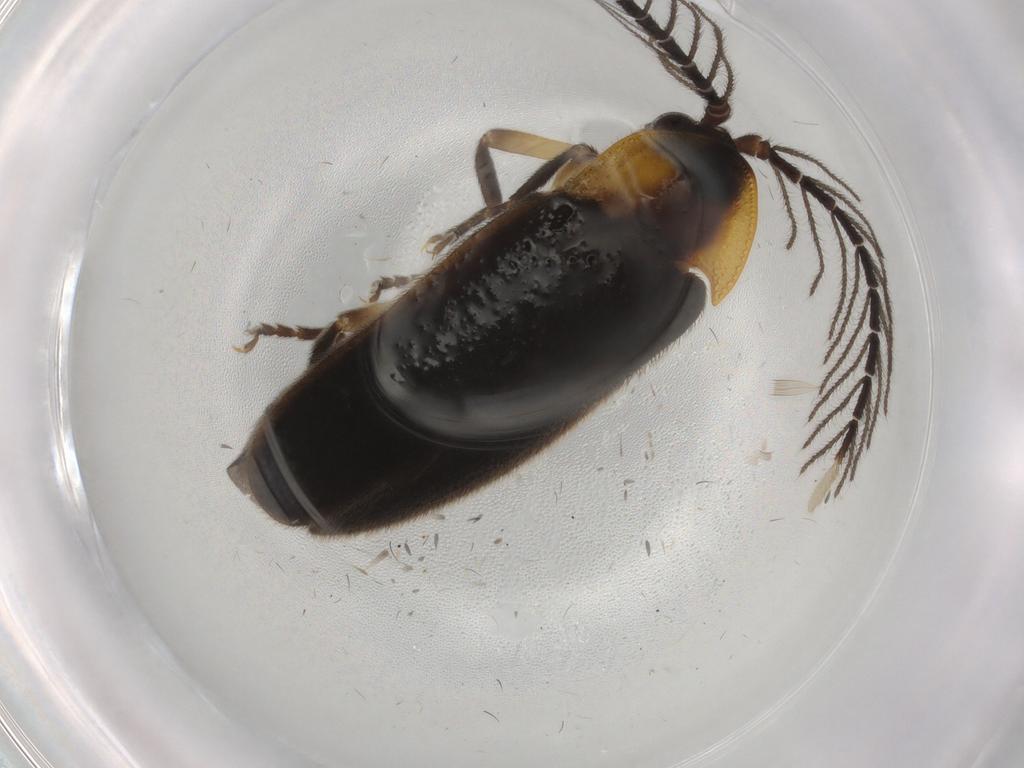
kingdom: Animalia
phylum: Arthropoda
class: Insecta
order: Coleoptera
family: Lampyridae
